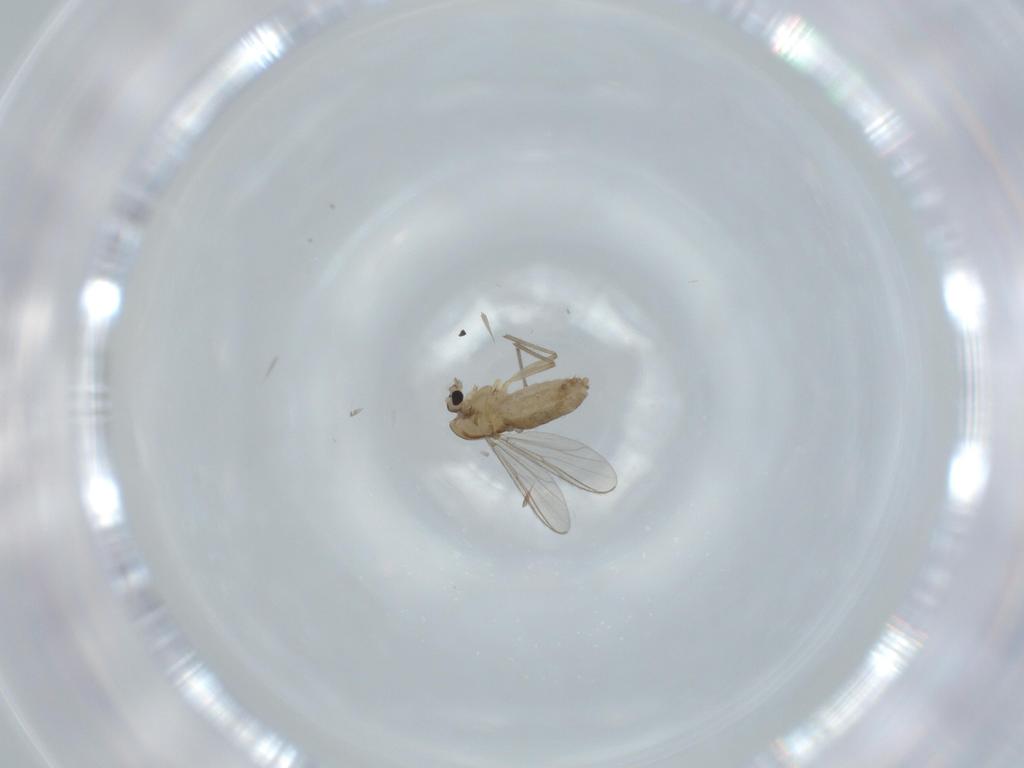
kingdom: Animalia
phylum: Arthropoda
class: Insecta
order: Diptera
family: Chironomidae
